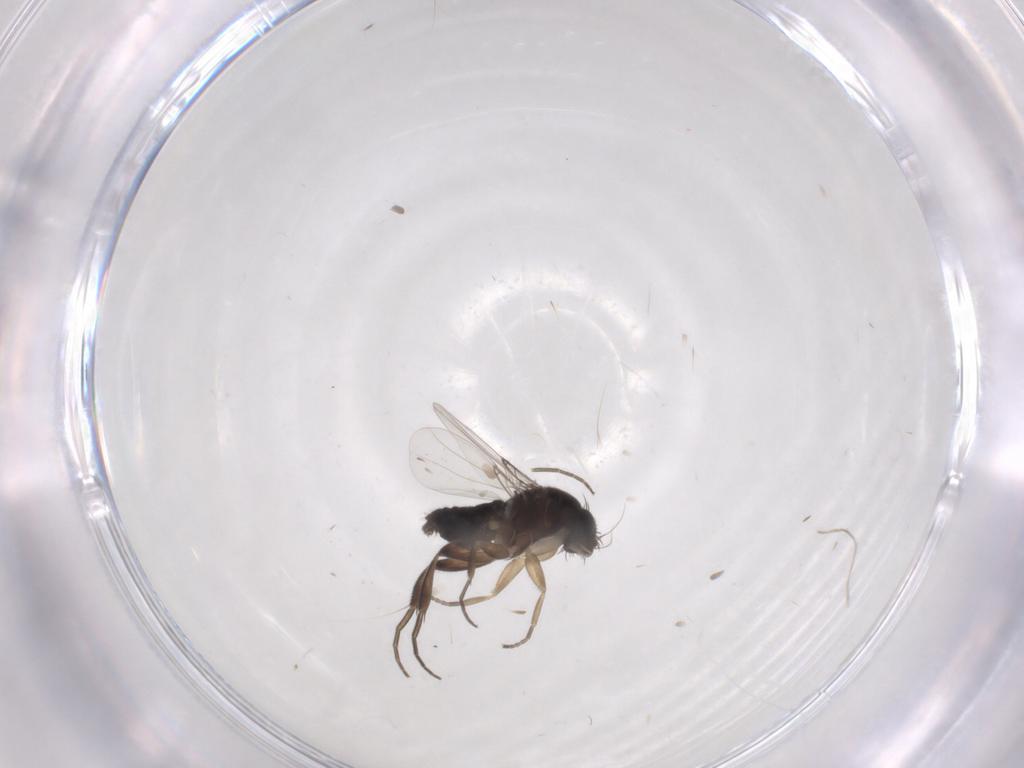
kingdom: Animalia
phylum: Arthropoda
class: Insecta
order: Diptera
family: Phoridae
